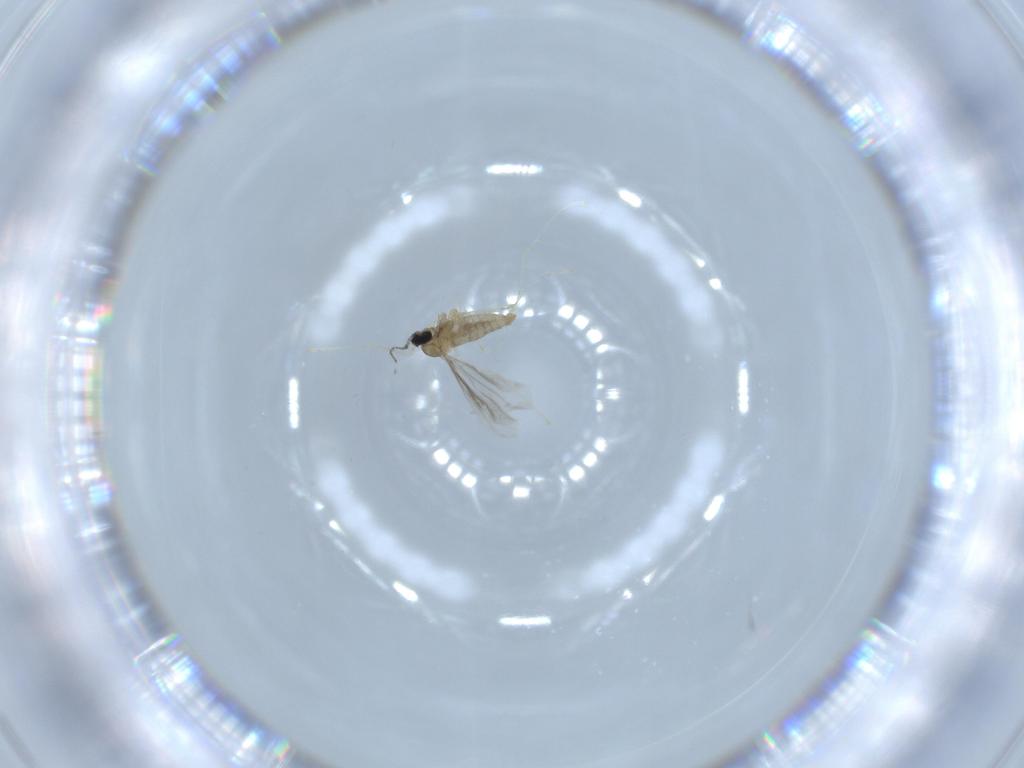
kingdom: Animalia
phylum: Arthropoda
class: Insecta
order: Diptera
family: Cecidomyiidae
